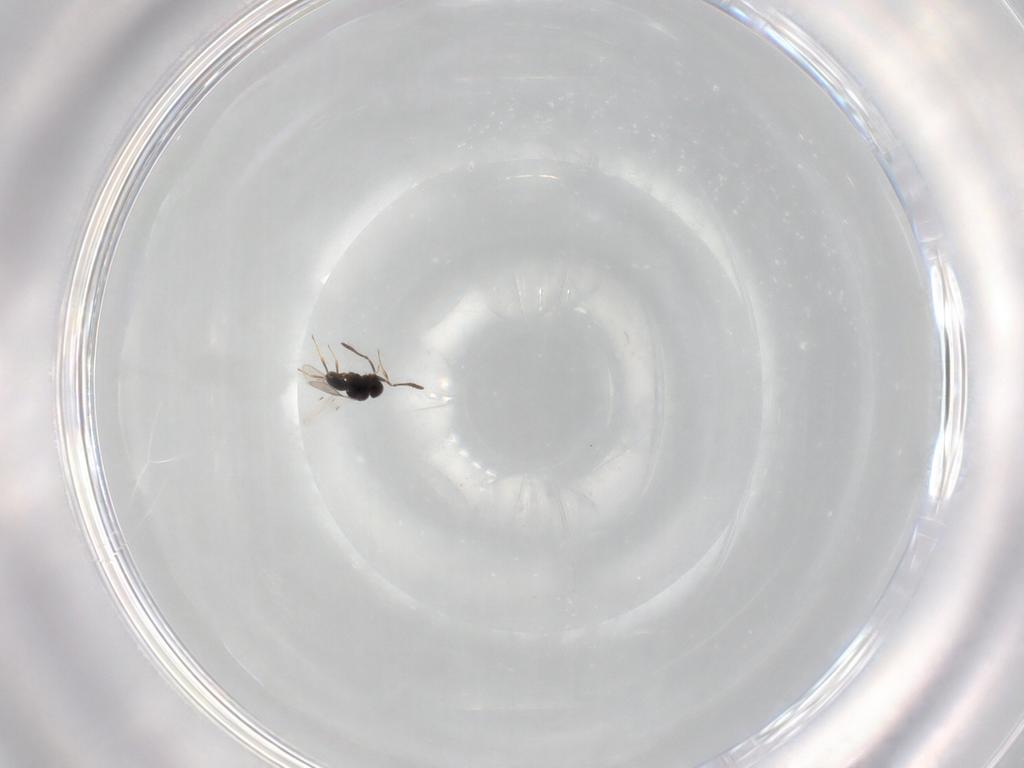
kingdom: Animalia
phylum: Arthropoda
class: Insecta
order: Hymenoptera
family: Scelionidae
